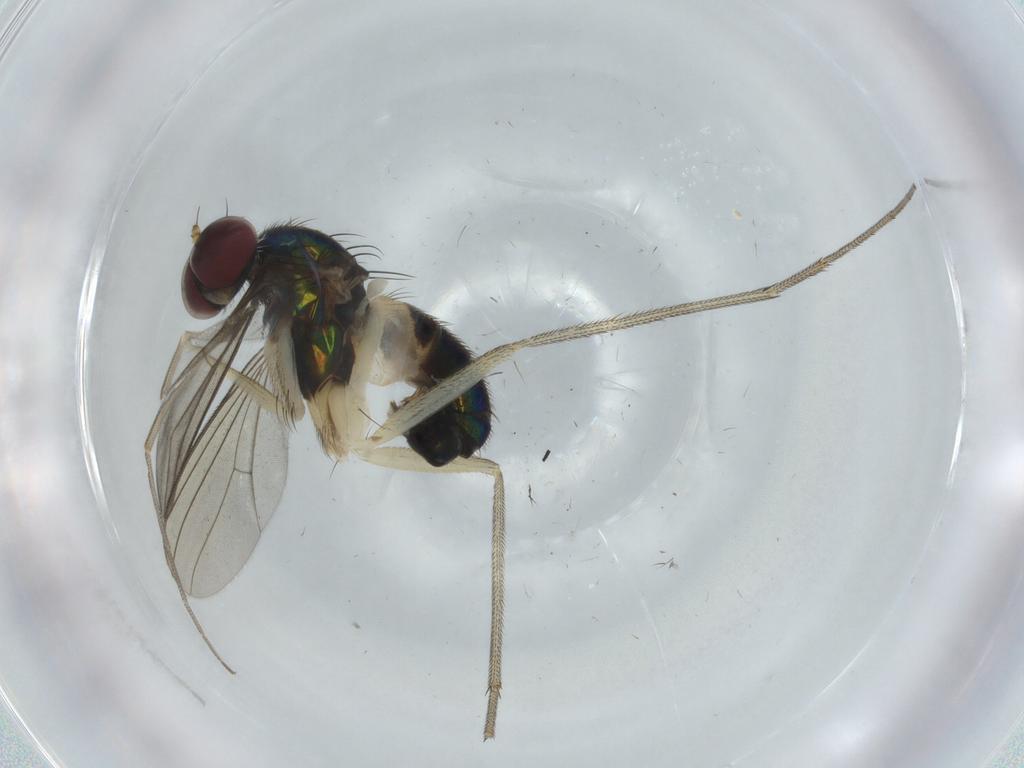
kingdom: Animalia
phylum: Arthropoda
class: Insecta
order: Diptera
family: Dolichopodidae
